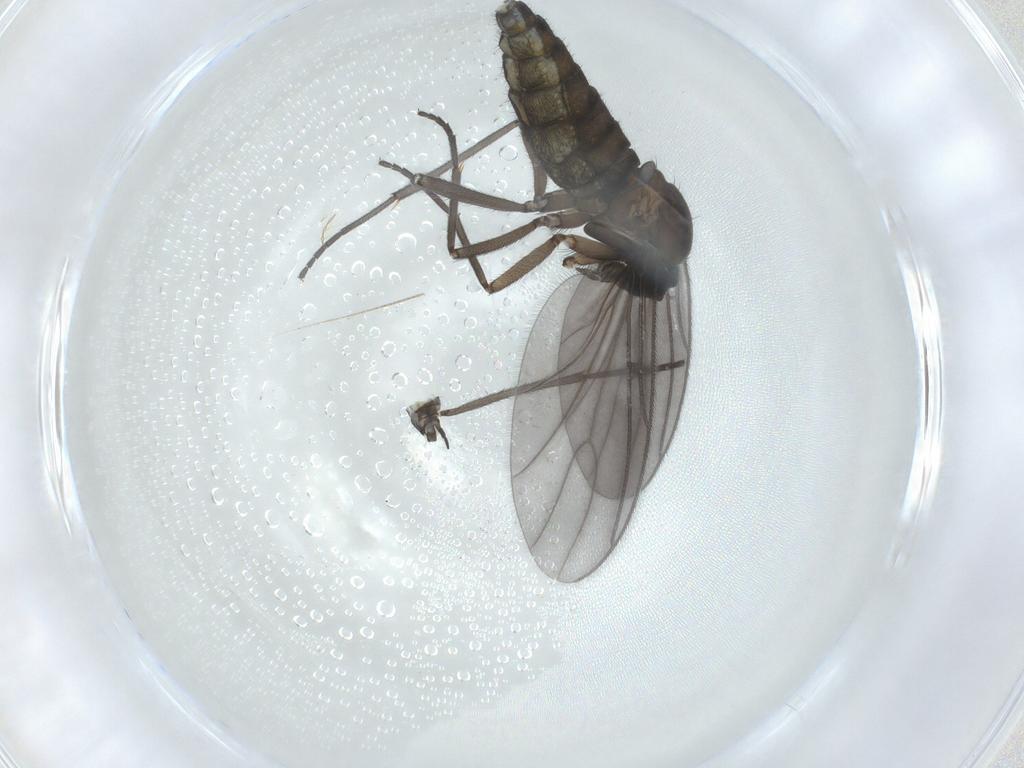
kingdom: Animalia
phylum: Arthropoda
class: Insecta
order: Diptera
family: Sciaridae
